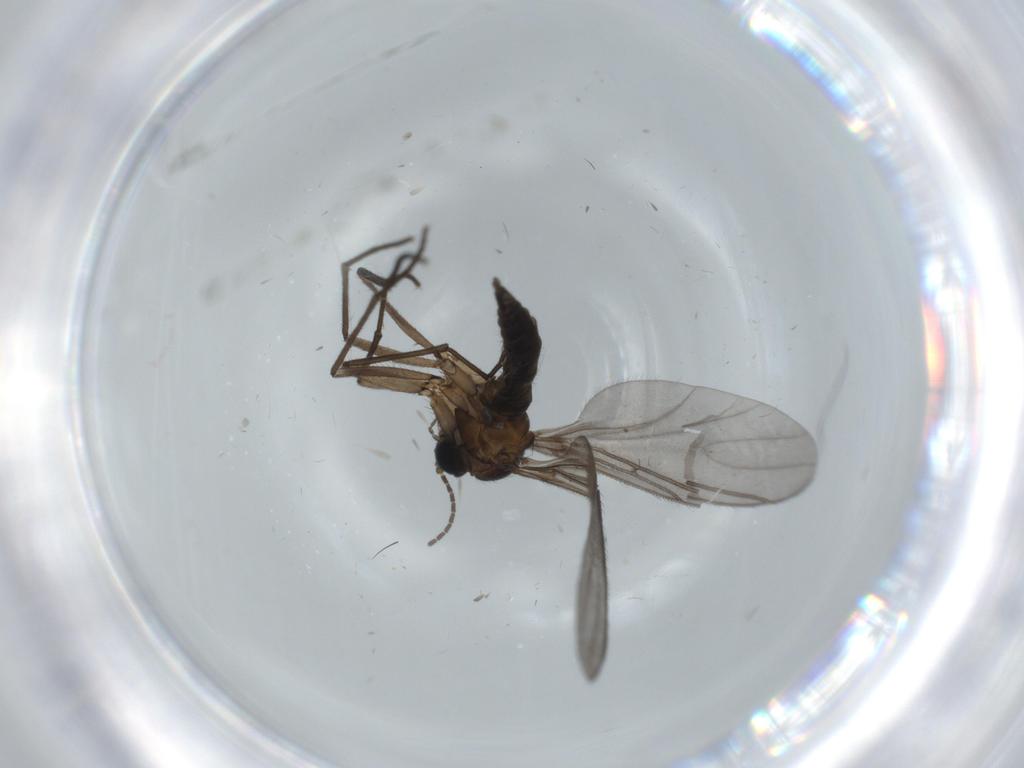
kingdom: Animalia
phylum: Arthropoda
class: Insecta
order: Diptera
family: Sciaridae
